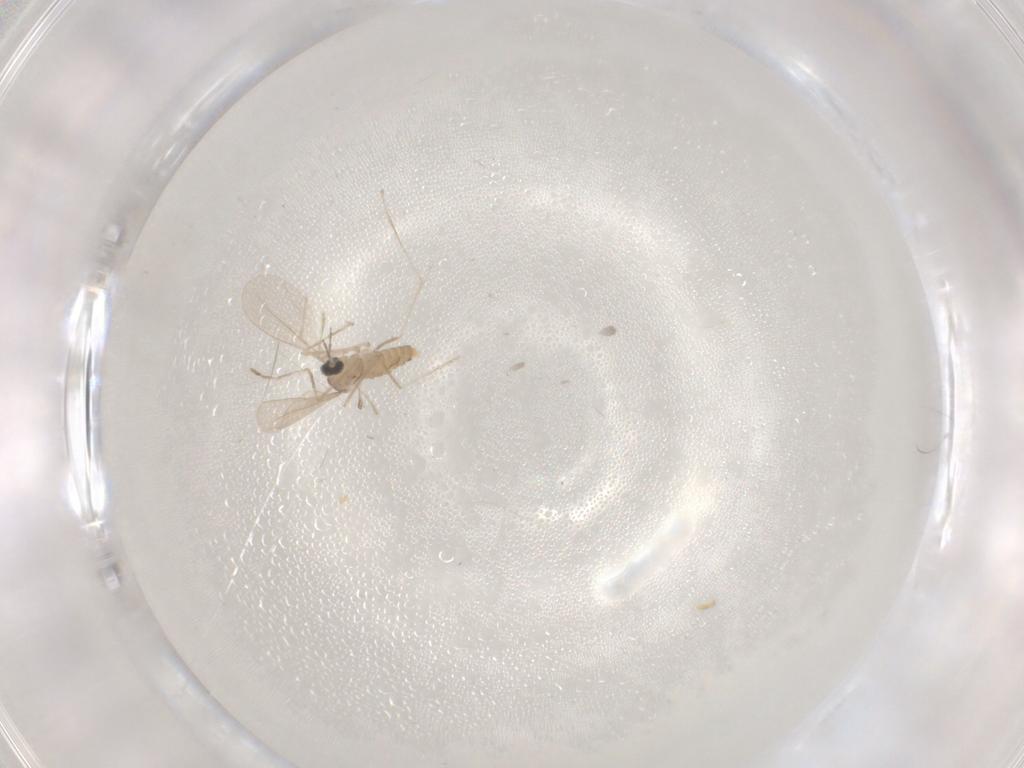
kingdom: Animalia
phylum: Arthropoda
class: Insecta
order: Diptera
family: Cecidomyiidae
